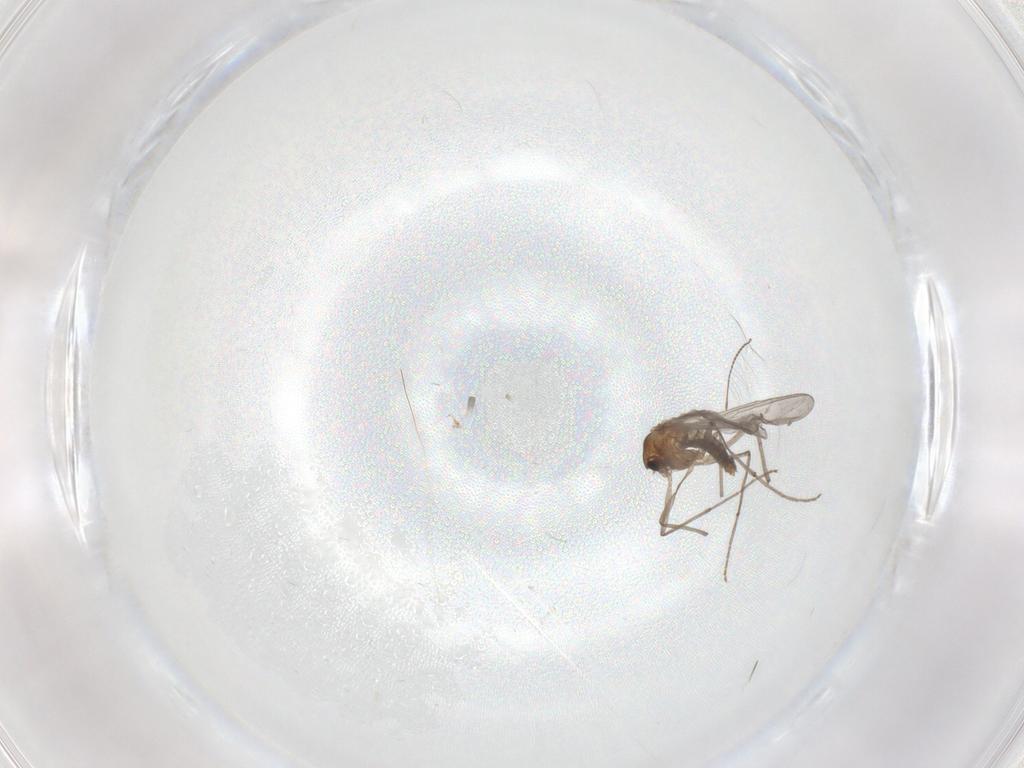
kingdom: Animalia
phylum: Arthropoda
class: Insecta
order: Diptera
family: Chironomidae
